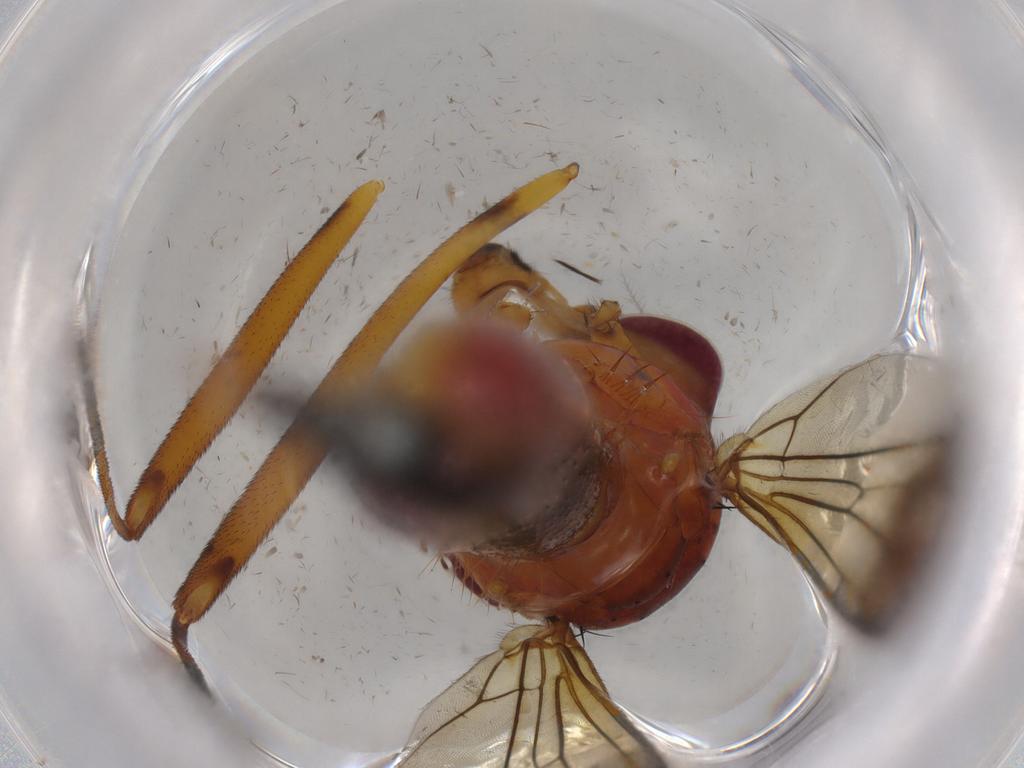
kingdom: Animalia
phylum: Arthropoda
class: Insecta
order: Diptera
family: Micropezidae
